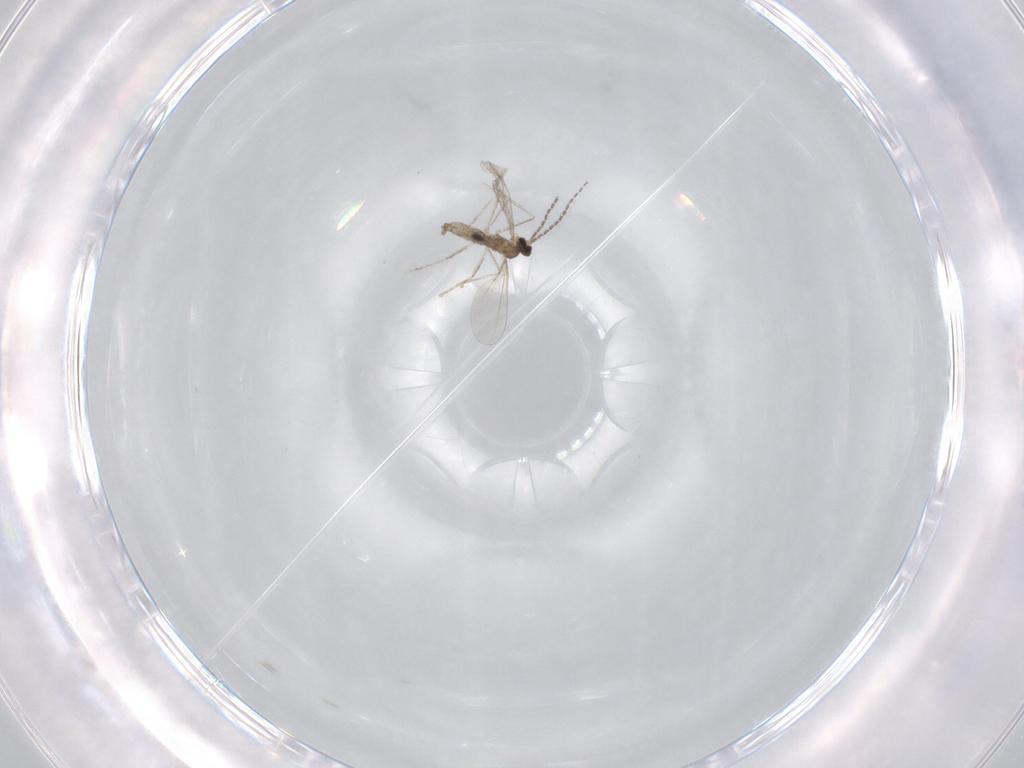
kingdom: Animalia
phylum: Arthropoda
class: Insecta
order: Diptera
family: Chironomidae
